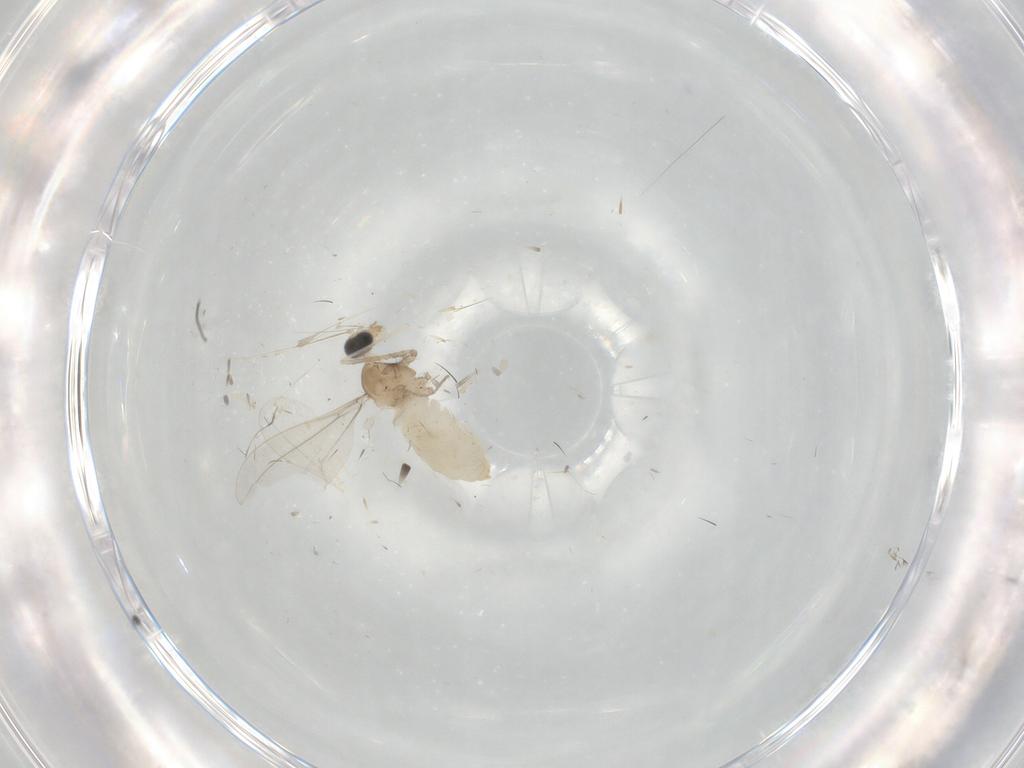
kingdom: Animalia
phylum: Arthropoda
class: Insecta
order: Diptera
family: Cecidomyiidae
